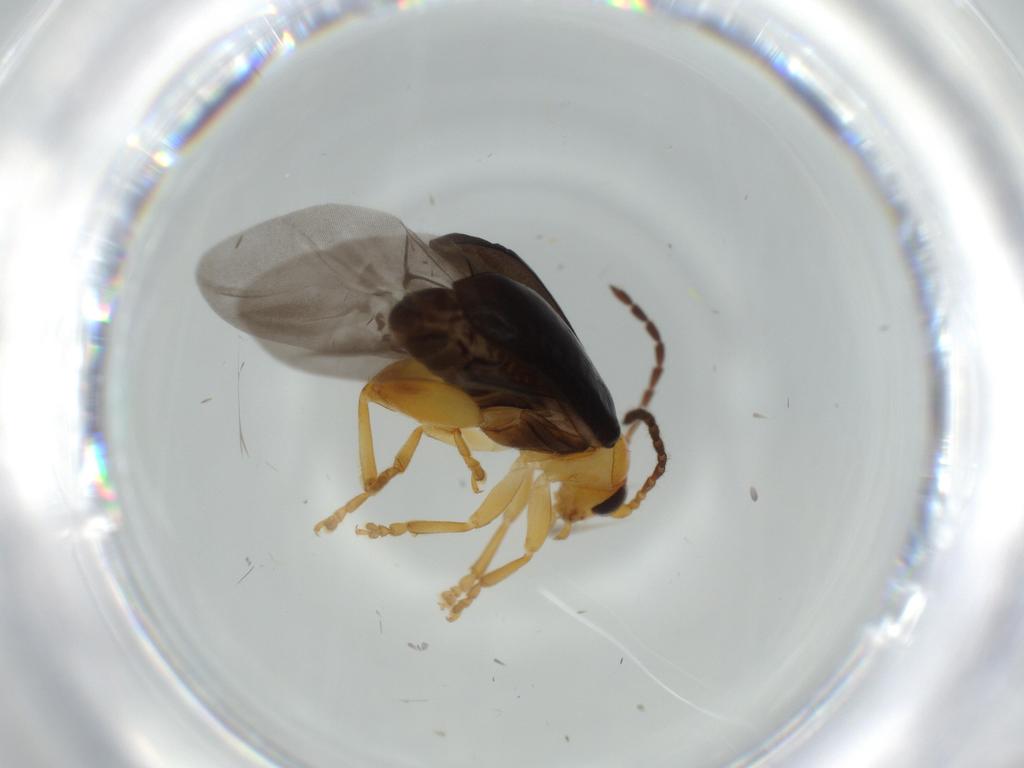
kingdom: Animalia
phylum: Arthropoda
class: Insecta
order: Coleoptera
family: Chrysomelidae
